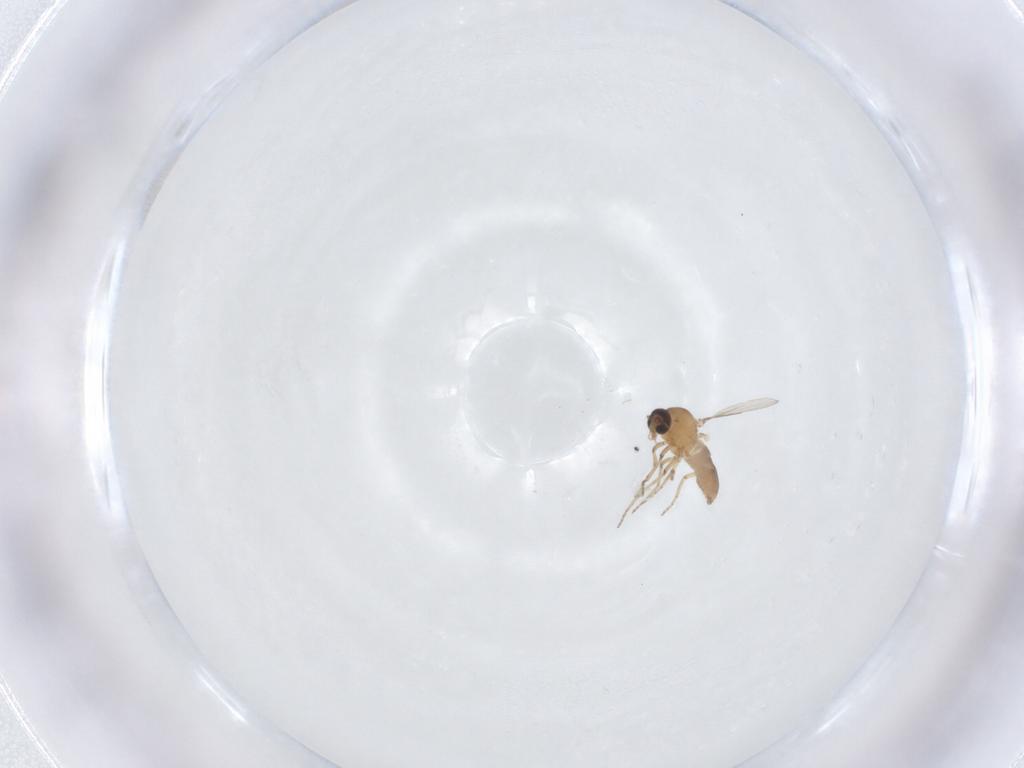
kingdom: Animalia
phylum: Arthropoda
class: Insecta
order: Diptera
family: Ceratopogonidae
